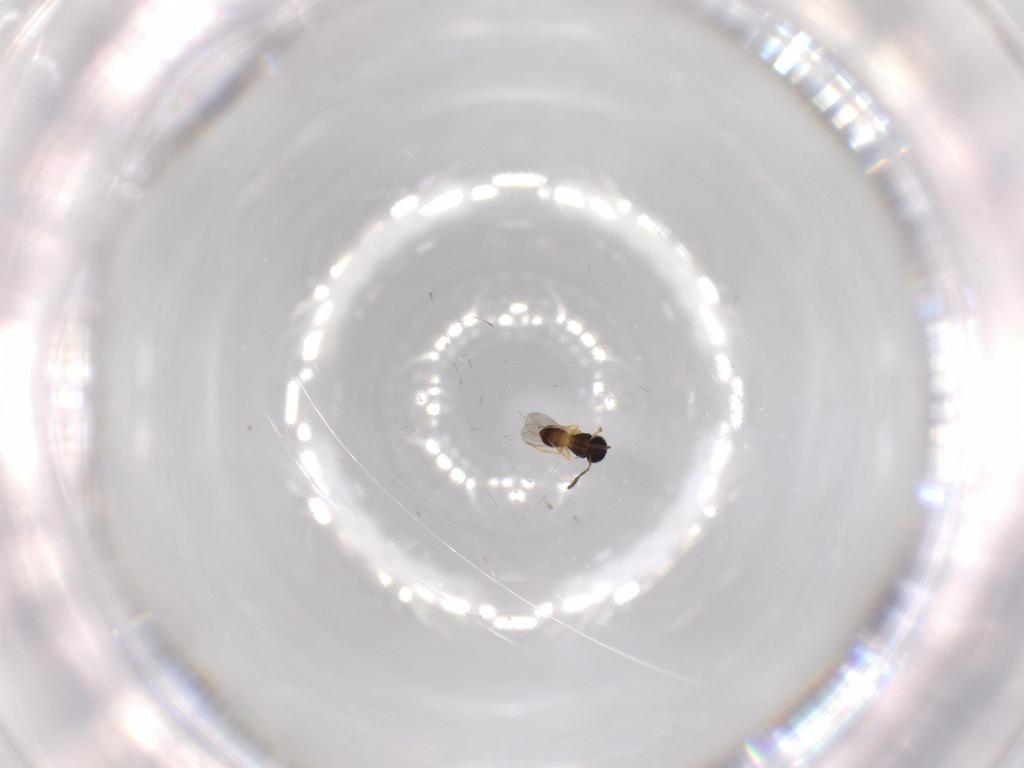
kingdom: Animalia
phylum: Arthropoda
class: Insecta
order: Hymenoptera
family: Scelionidae
